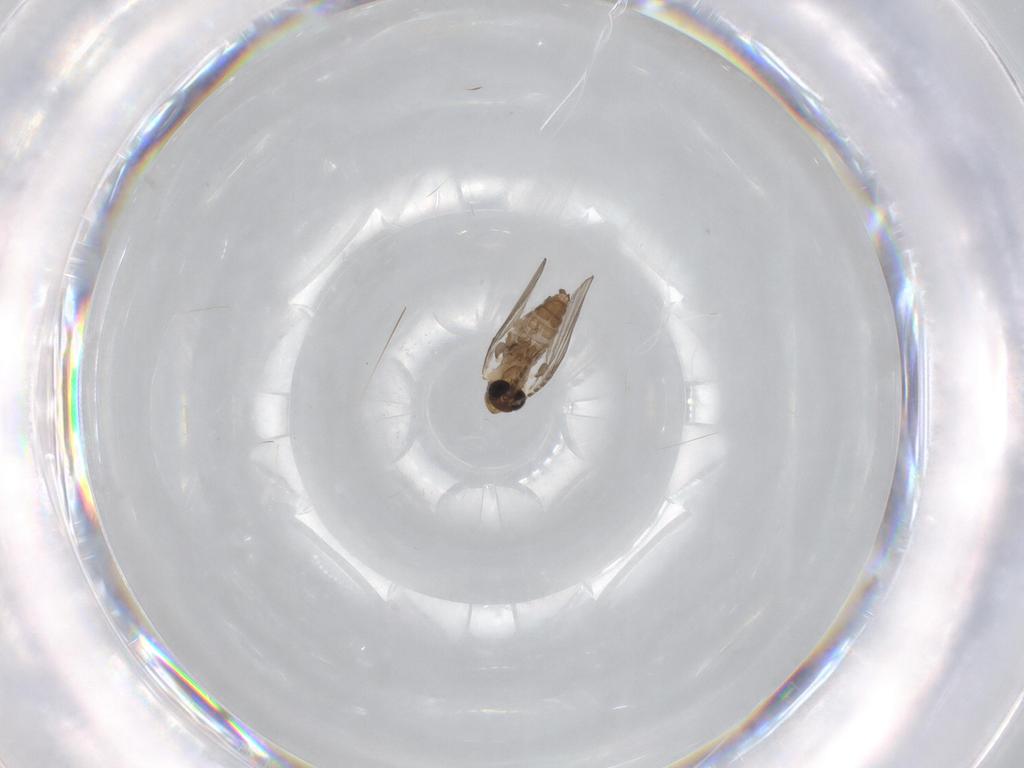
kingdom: Animalia
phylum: Arthropoda
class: Insecta
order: Diptera
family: Psychodidae
